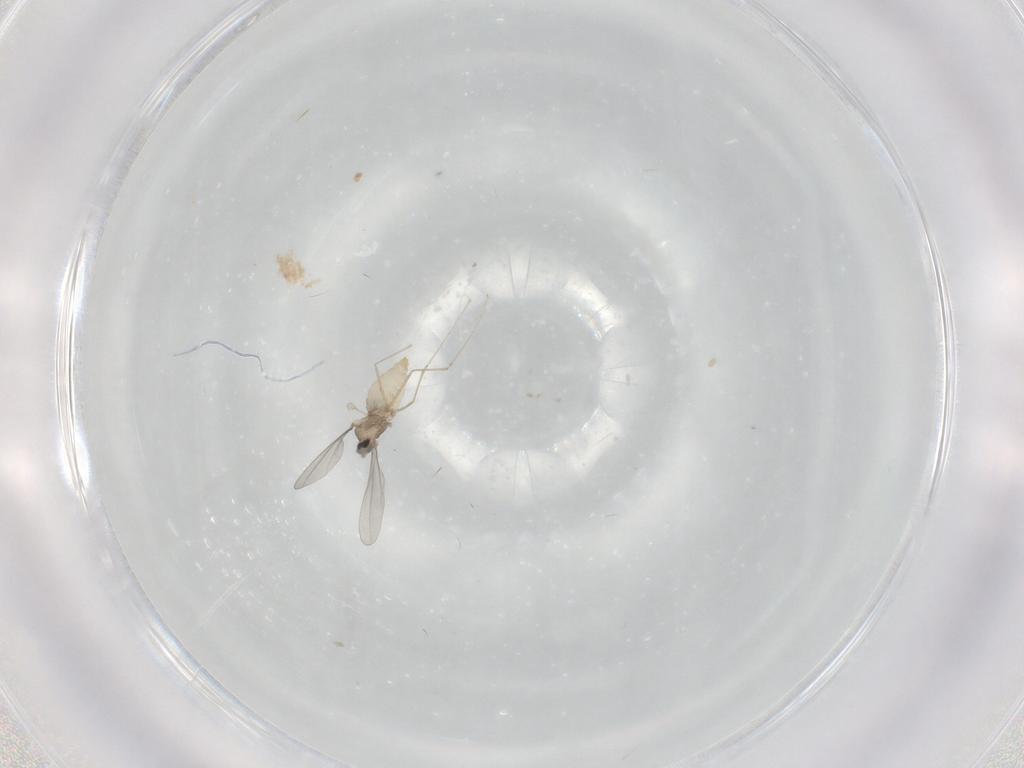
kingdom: Animalia
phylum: Arthropoda
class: Insecta
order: Diptera
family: Cecidomyiidae
